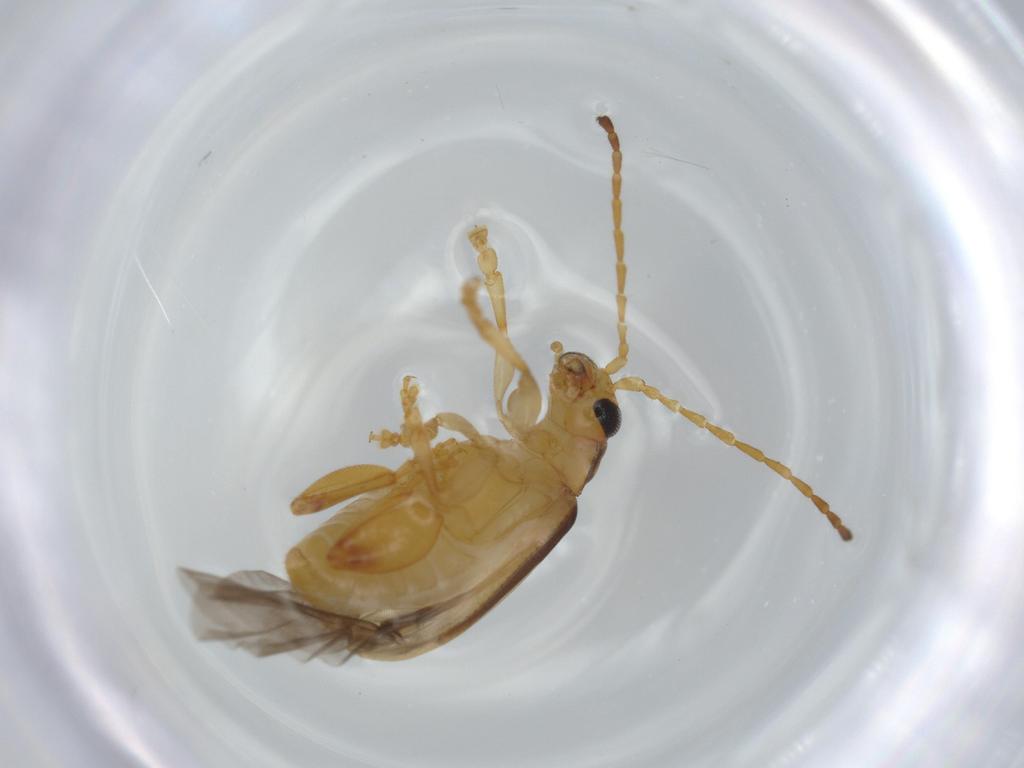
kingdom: Animalia
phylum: Arthropoda
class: Insecta
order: Coleoptera
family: Chrysomelidae
